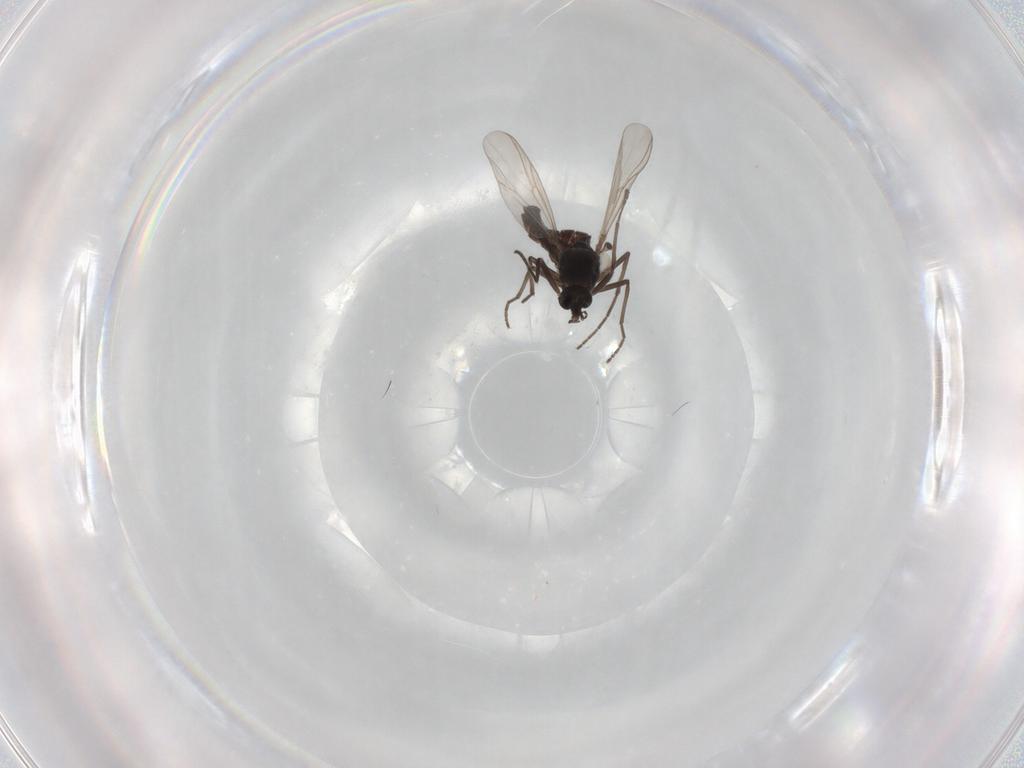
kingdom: Animalia
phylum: Arthropoda
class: Insecta
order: Diptera
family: Chironomidae
